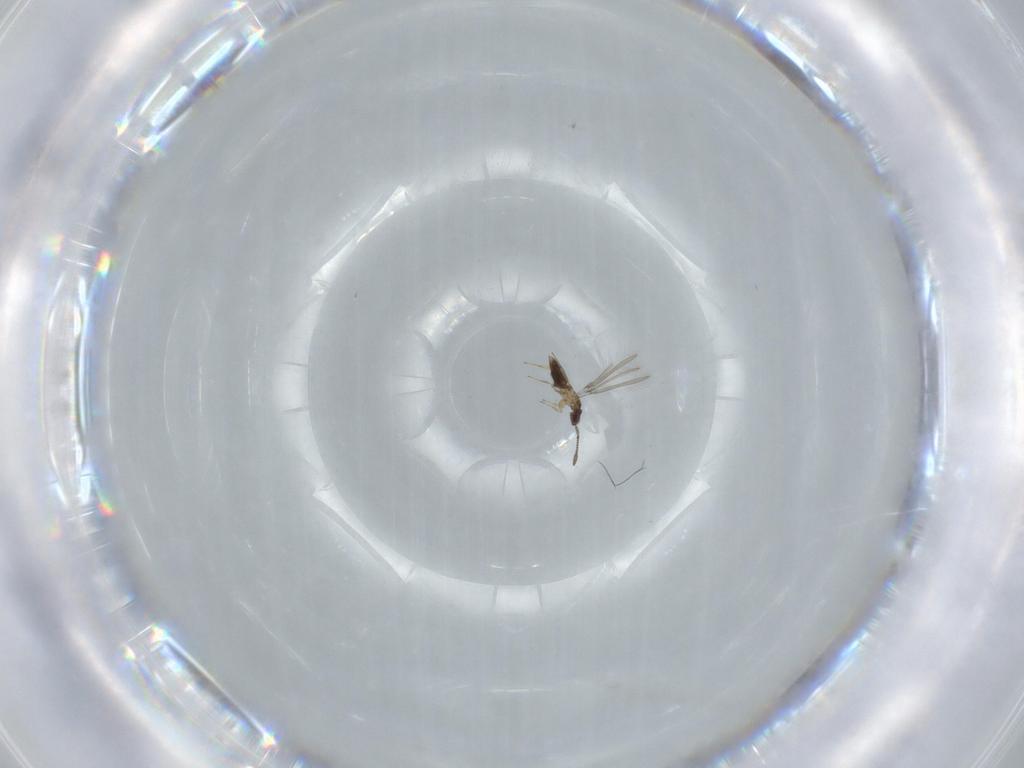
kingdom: Animalia
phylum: Arthropoda
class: Insecta
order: Hymenoptera
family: Mymaridae
